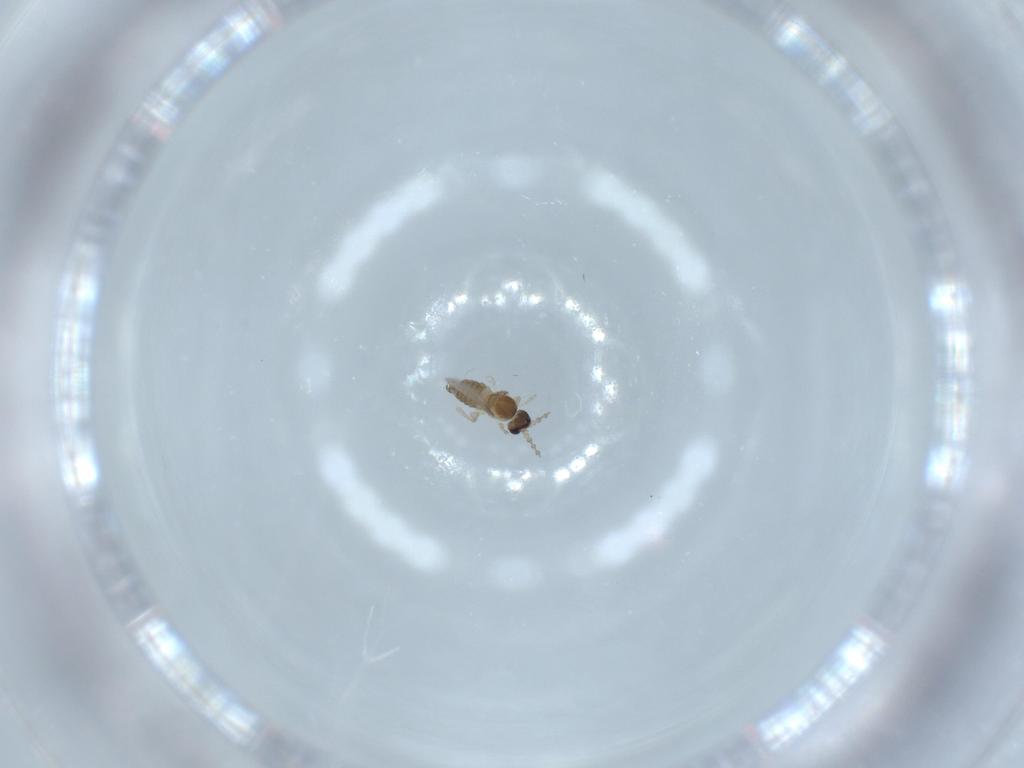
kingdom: Animalia
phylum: Arthropoda
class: Insecta
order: Diptera
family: Cecidomyiidae
